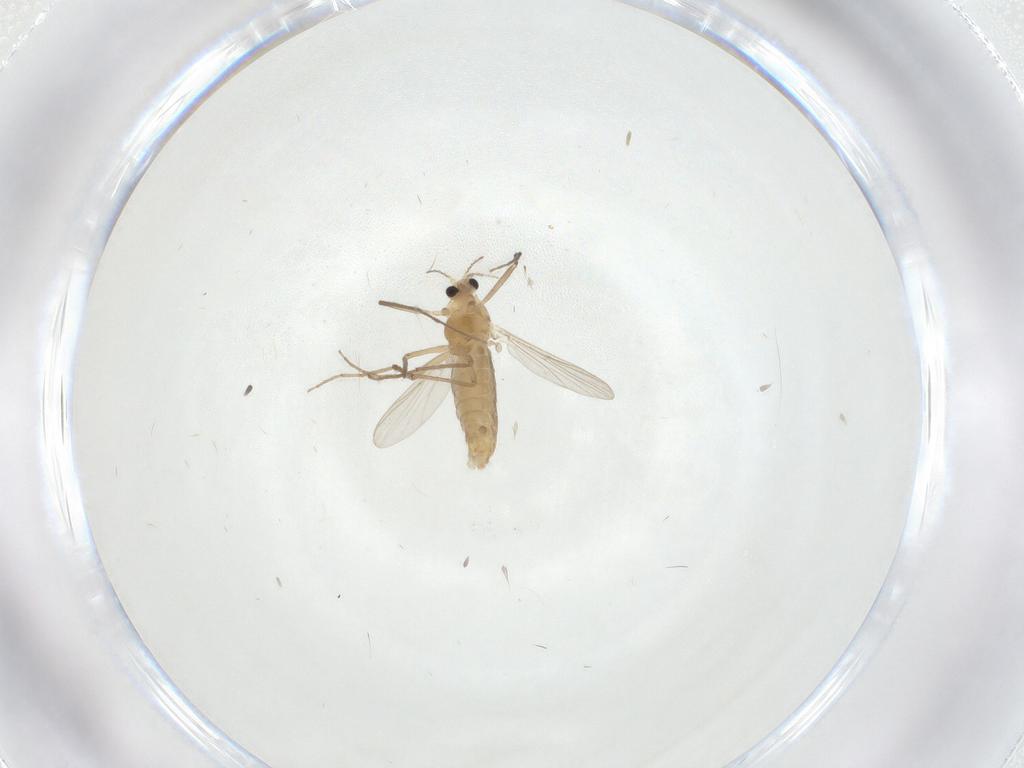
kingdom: Animalia
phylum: Arthropoda
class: Insecta
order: Diptera
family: Chironomidae
